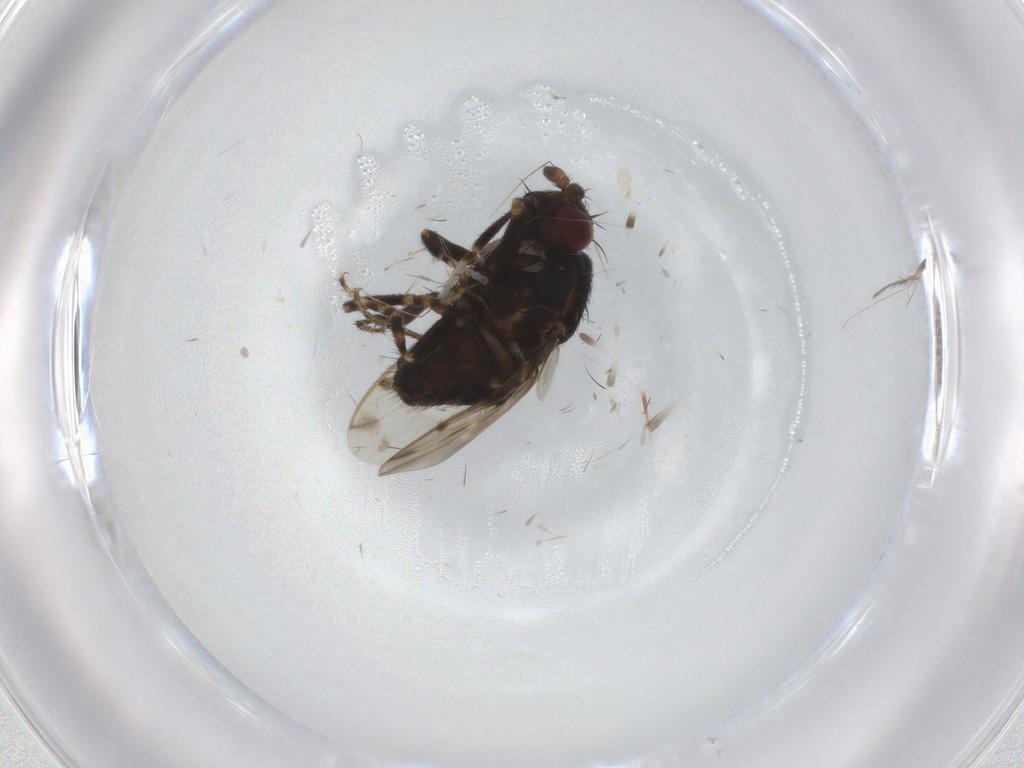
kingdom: Animalia
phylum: Arthropoda
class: Insecta
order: Diptera
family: Sphaeroceridae
